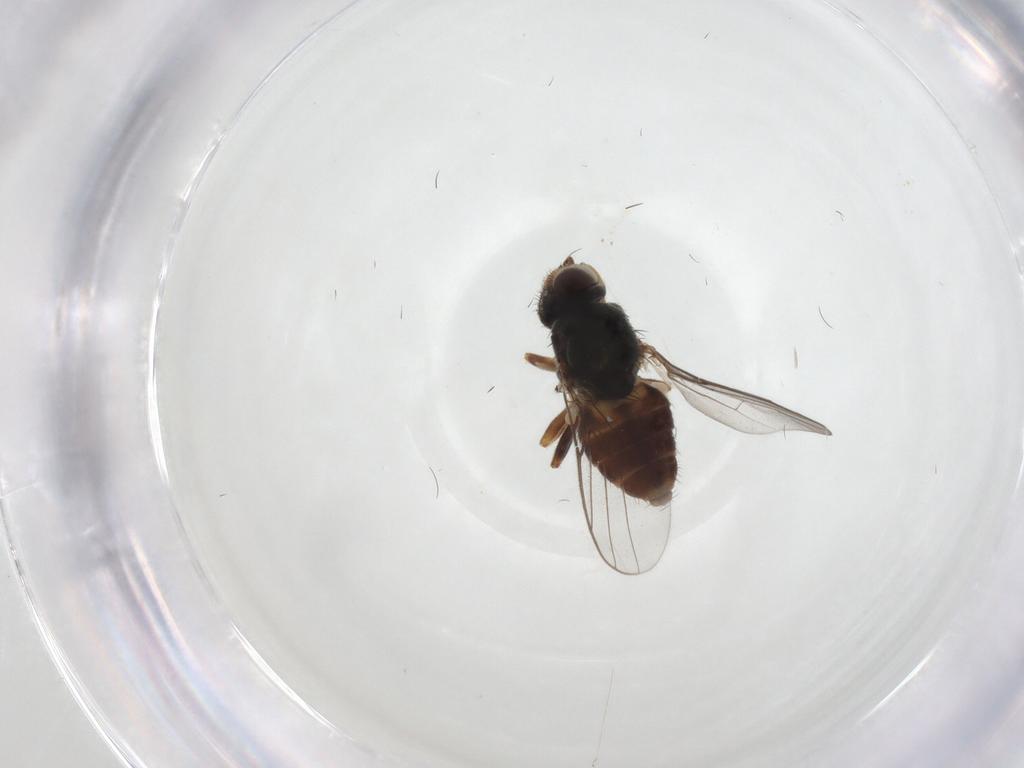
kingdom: Animalia
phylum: Arthropoda
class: Insecta
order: Diptera
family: Chloropidae
